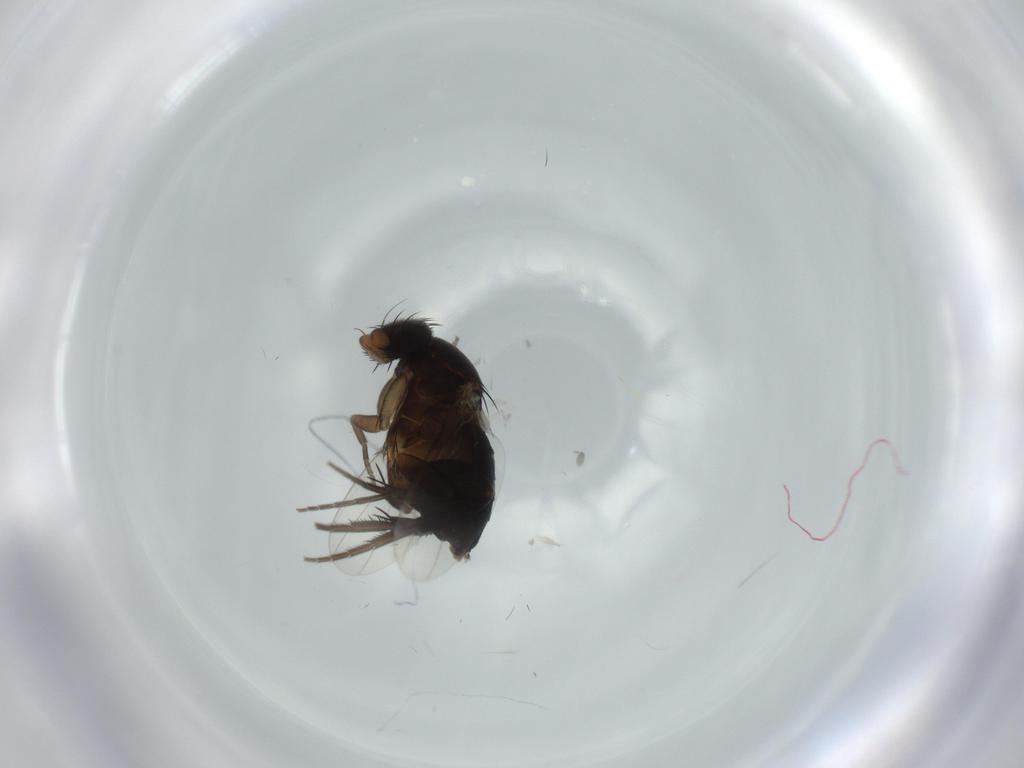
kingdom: Animalia
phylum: Arthropoda
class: Insecta
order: Diptera
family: Phoridae
